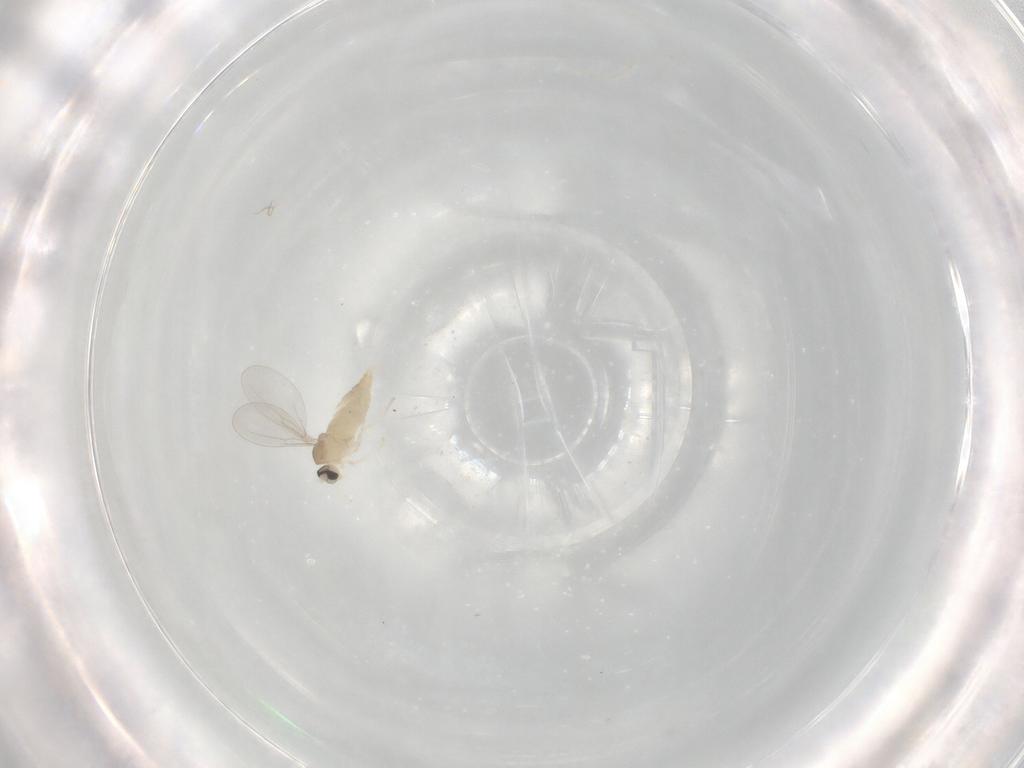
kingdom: Animalia
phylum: Arthropoda
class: Insecta
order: Diptera
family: Cecidomyiidae
